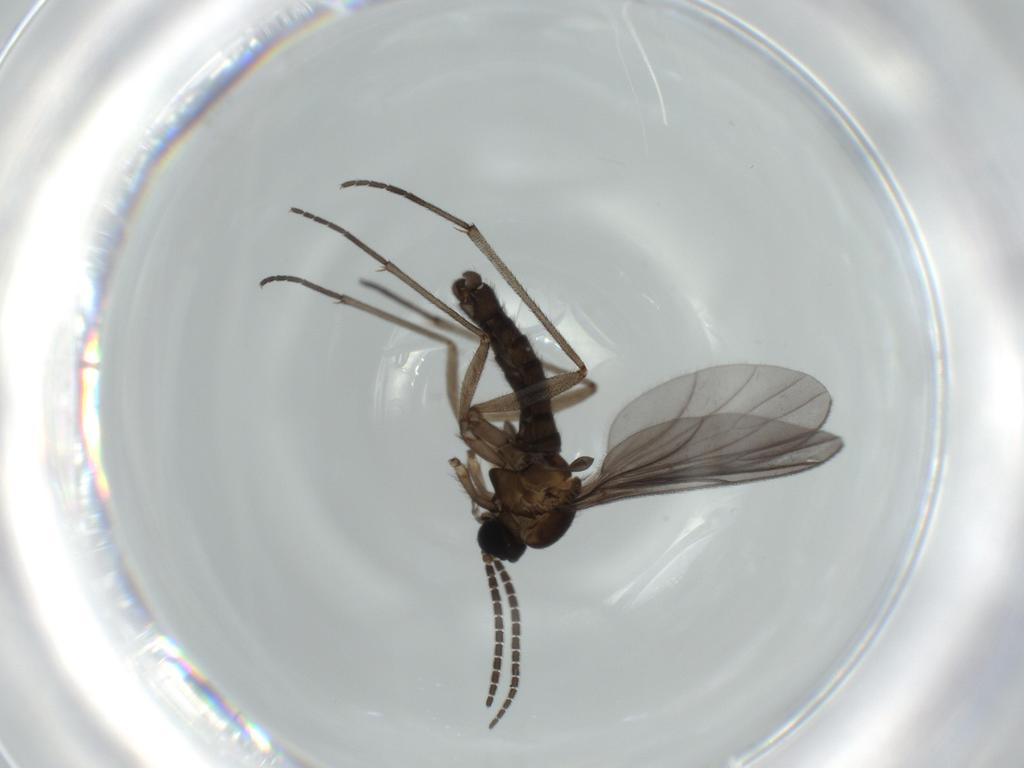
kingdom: Animalia
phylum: Arthropoda
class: Insecta
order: Diptera
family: Sciaridae
